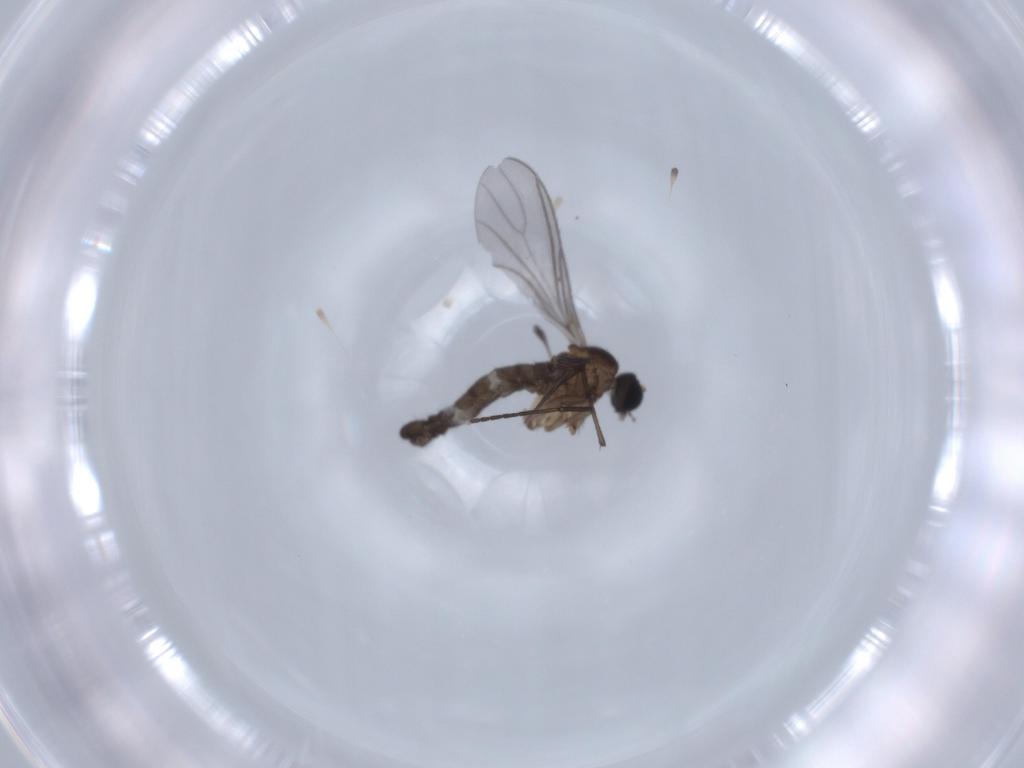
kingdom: Animalia
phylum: Arthropoda
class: Insecta
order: Diptera
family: Sciaridae
